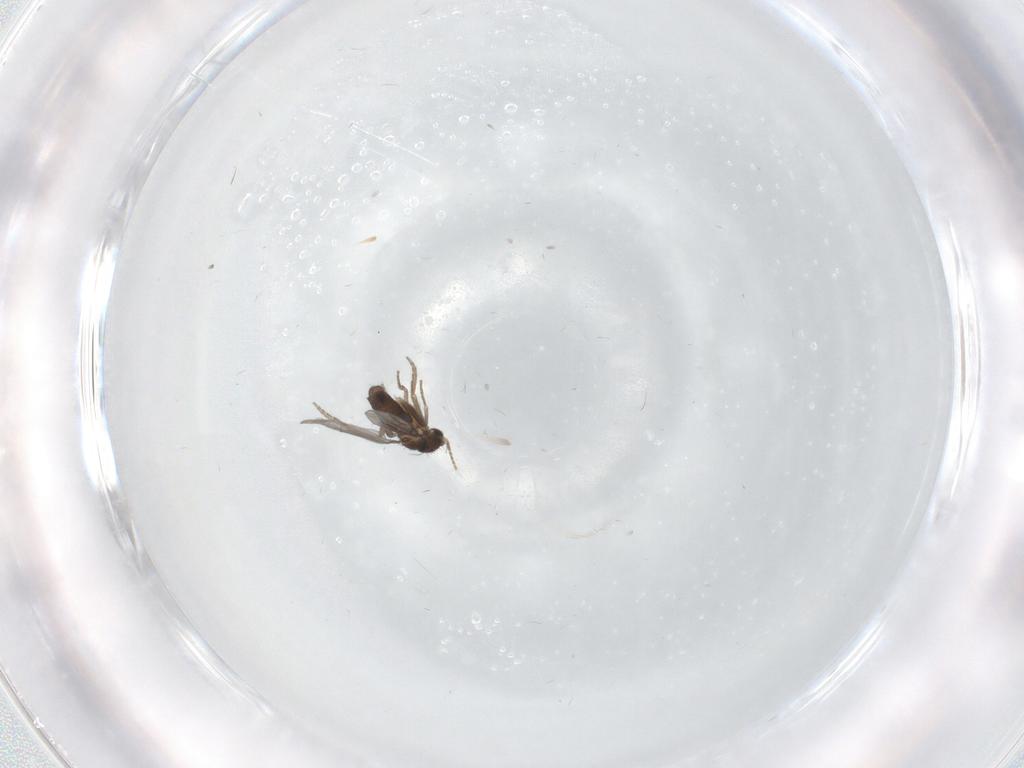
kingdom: Animalia
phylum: Arthropoda
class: Insecta
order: Diptera
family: Phoridae
